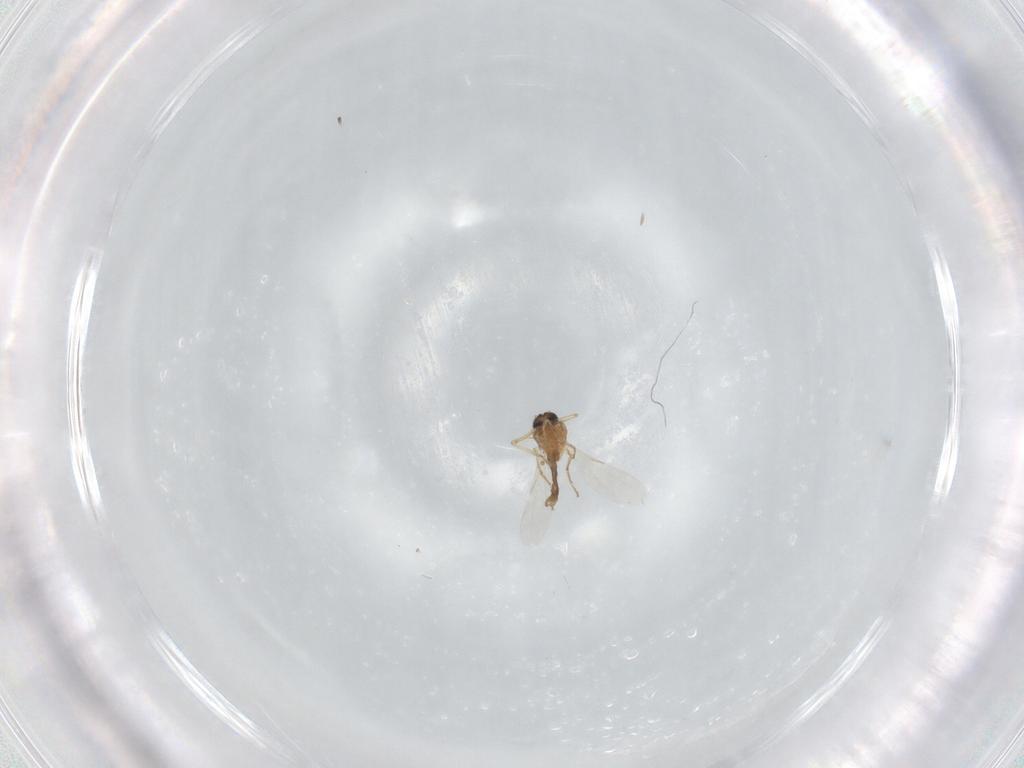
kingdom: Animalia
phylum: Arthropoda
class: Insecta
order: Diptera
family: Ceratopogonidae
